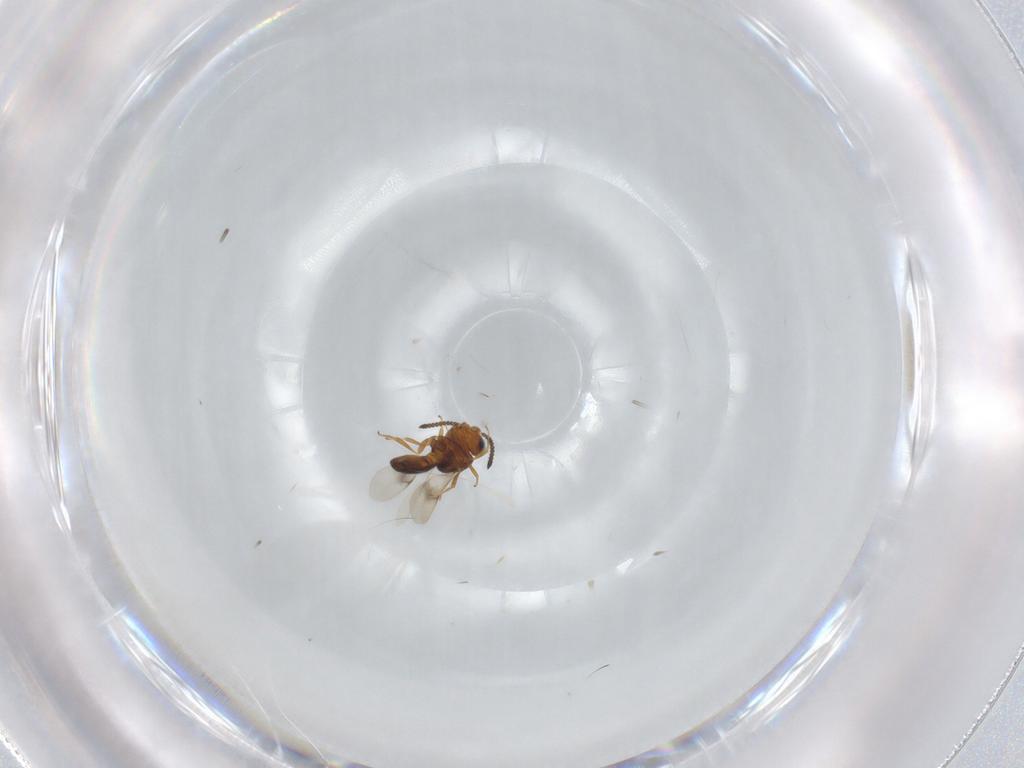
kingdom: Animalia
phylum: Arthropoda
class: Insecta
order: Hymenoptera
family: Scelionidae
